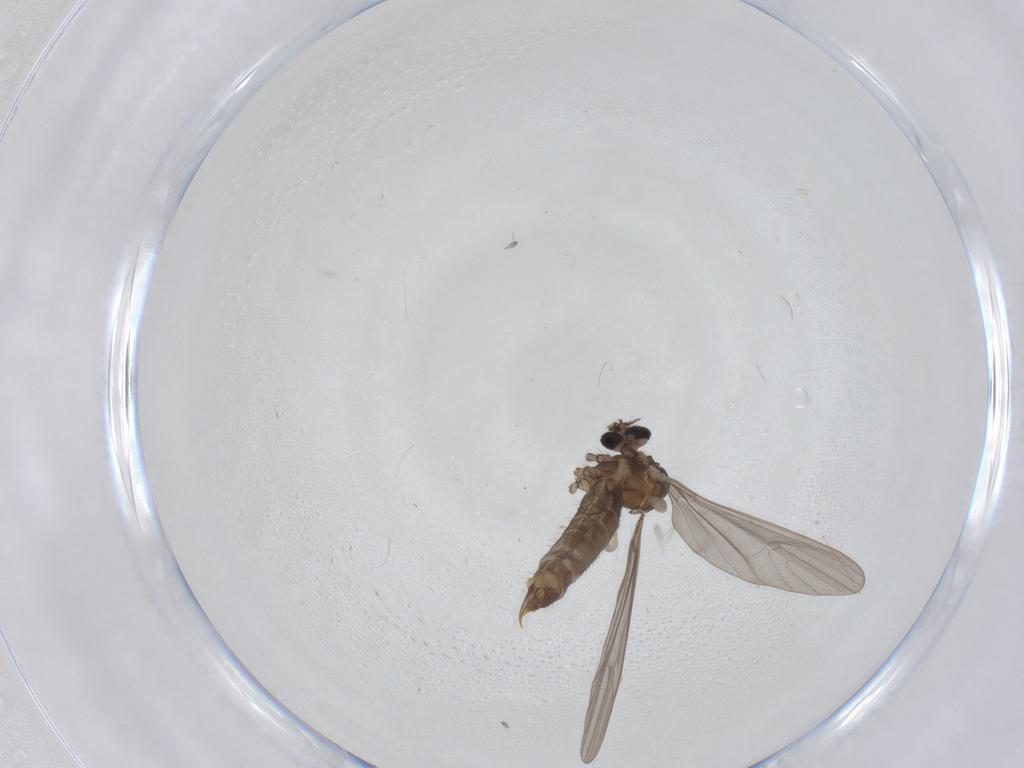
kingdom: Animalia
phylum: Arthropoda
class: Insecta
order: Diptera
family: Limoniidae
